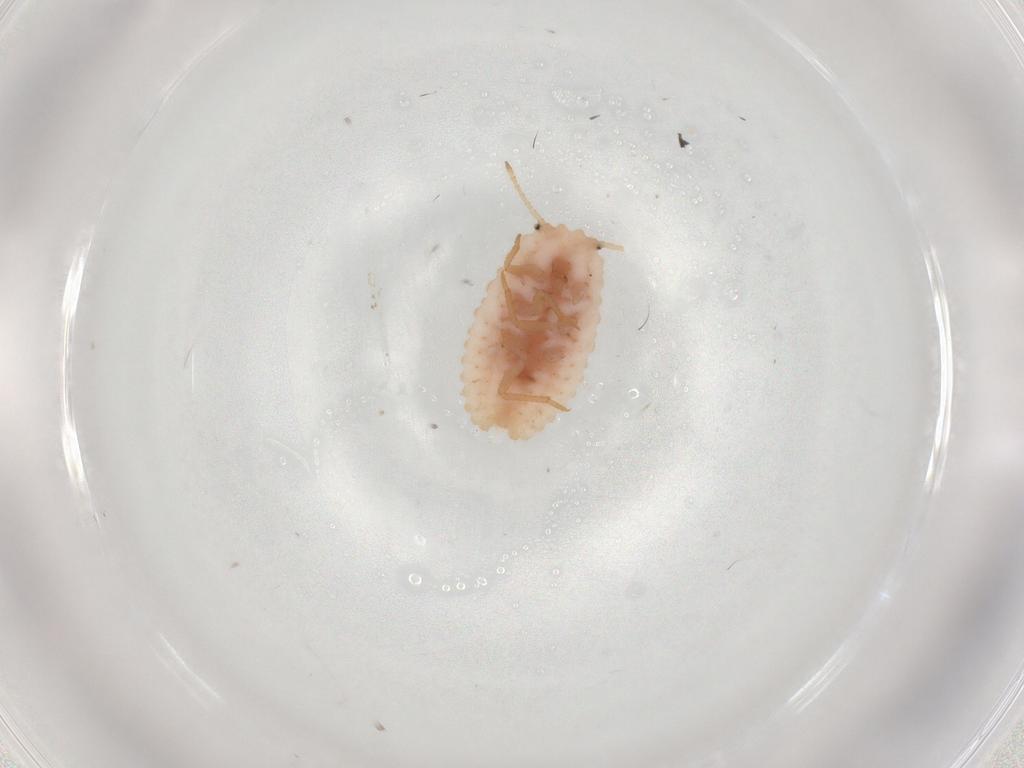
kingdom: Animalia
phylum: Arthropoda
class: Insecta
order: Hemiptera
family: Coccoidea_incertae_sedis
